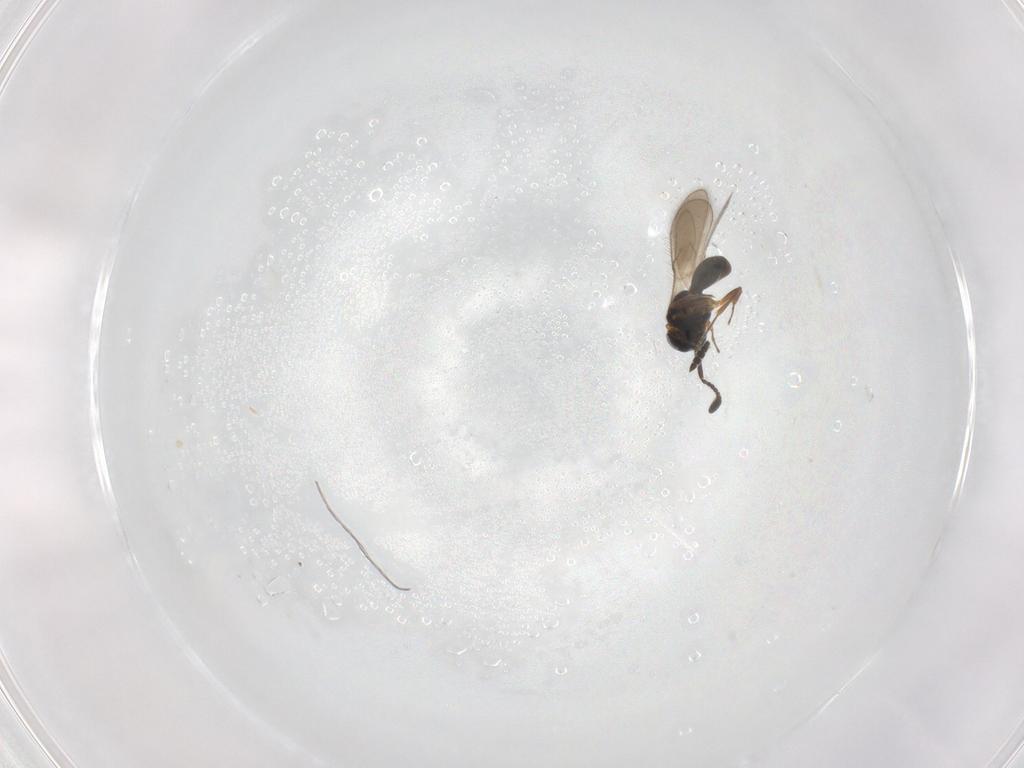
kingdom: Animalia
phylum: Arthropoda
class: Insecta
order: Hymenoptera
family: Scelionidae
